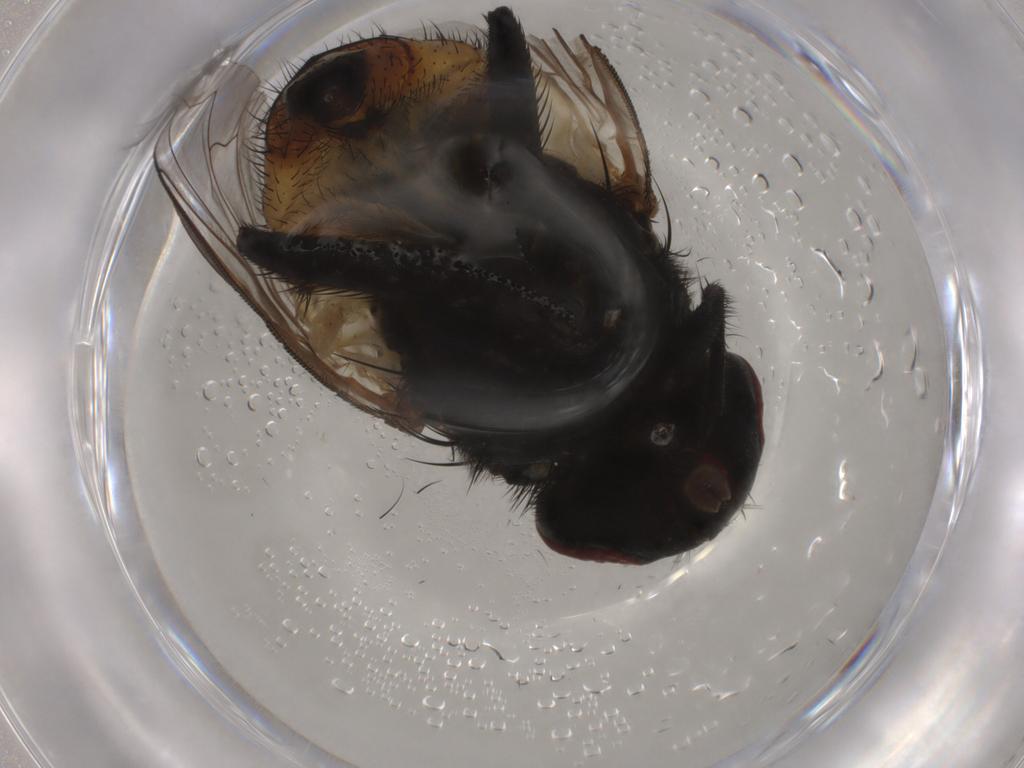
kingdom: Animalia
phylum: Arthropoda
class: Insecta
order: Diptera
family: Muscidae
